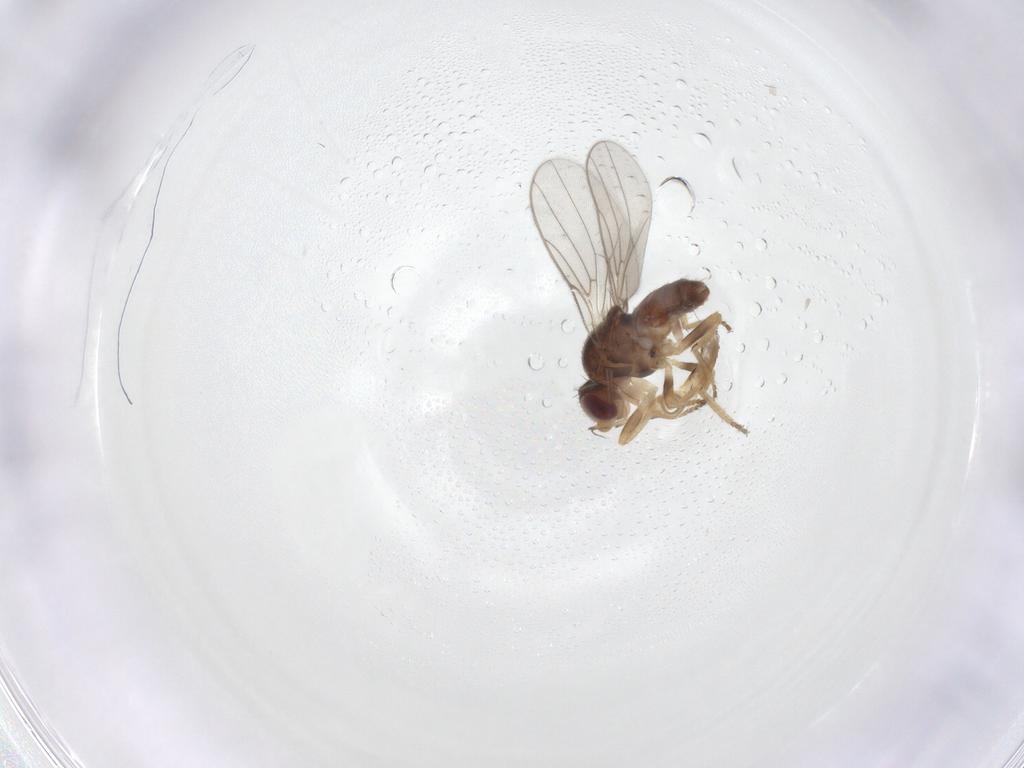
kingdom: Animalia
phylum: Arthropoda
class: Insecta
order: Diptera
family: Chloropidae
